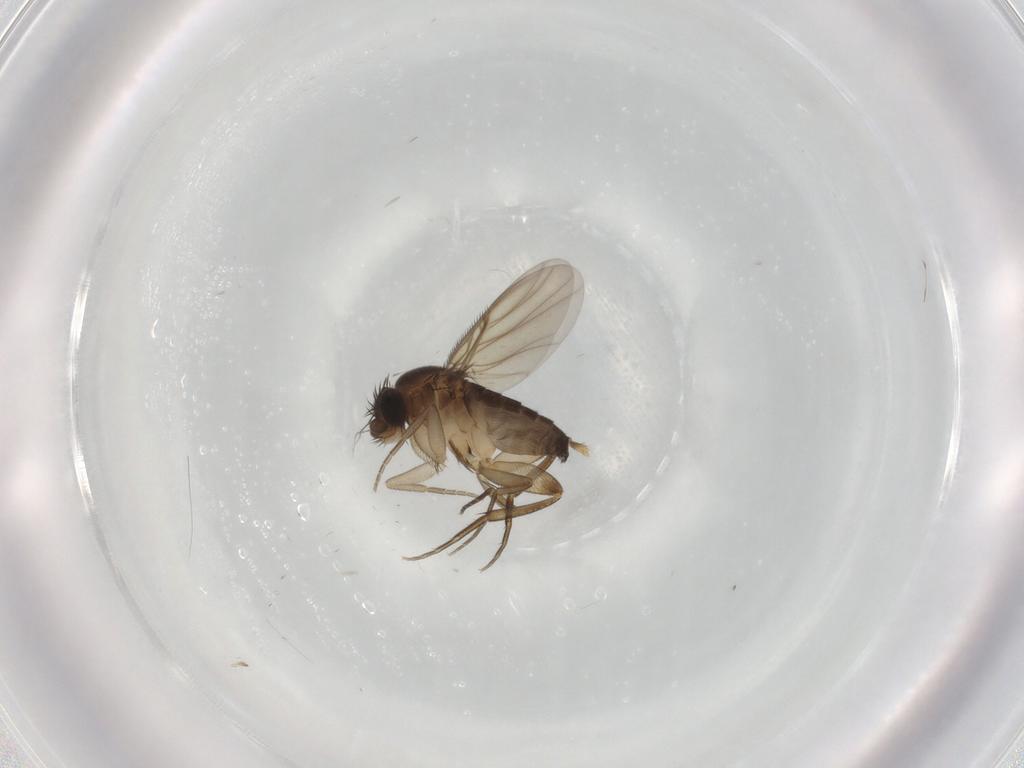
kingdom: Animalia
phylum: Arthropoda
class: Insecta
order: Diptera
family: Phoridae
